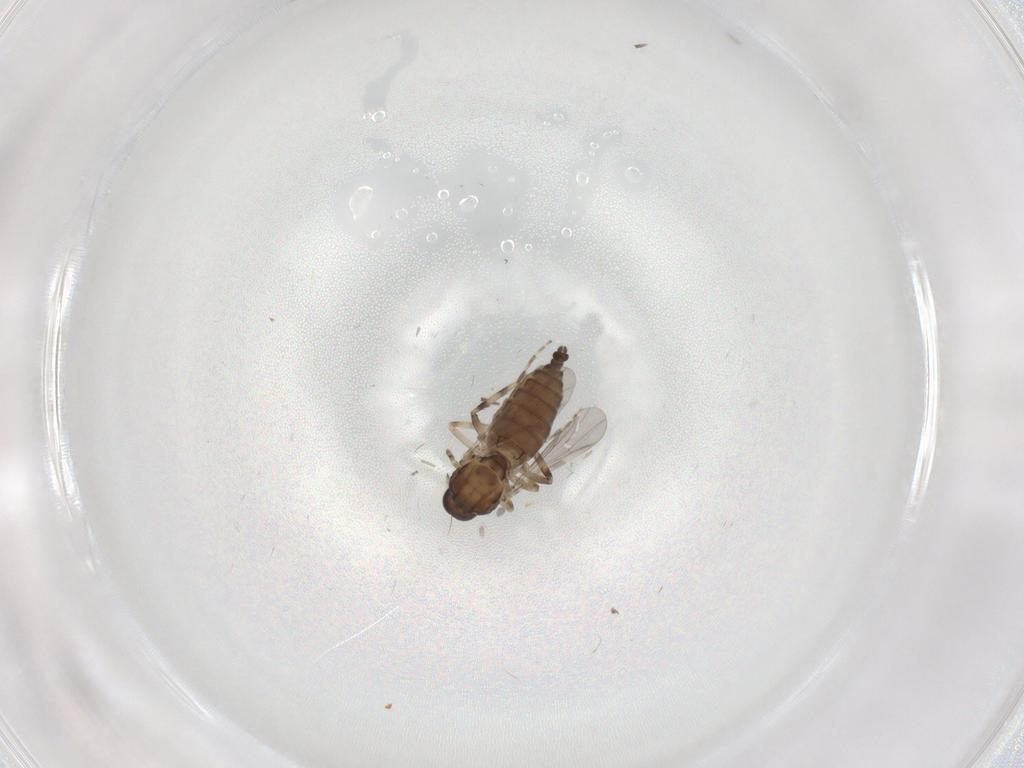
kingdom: Animalia
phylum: Arthropoda
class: Insecta
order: Diptera
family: Ceratopogonidae
